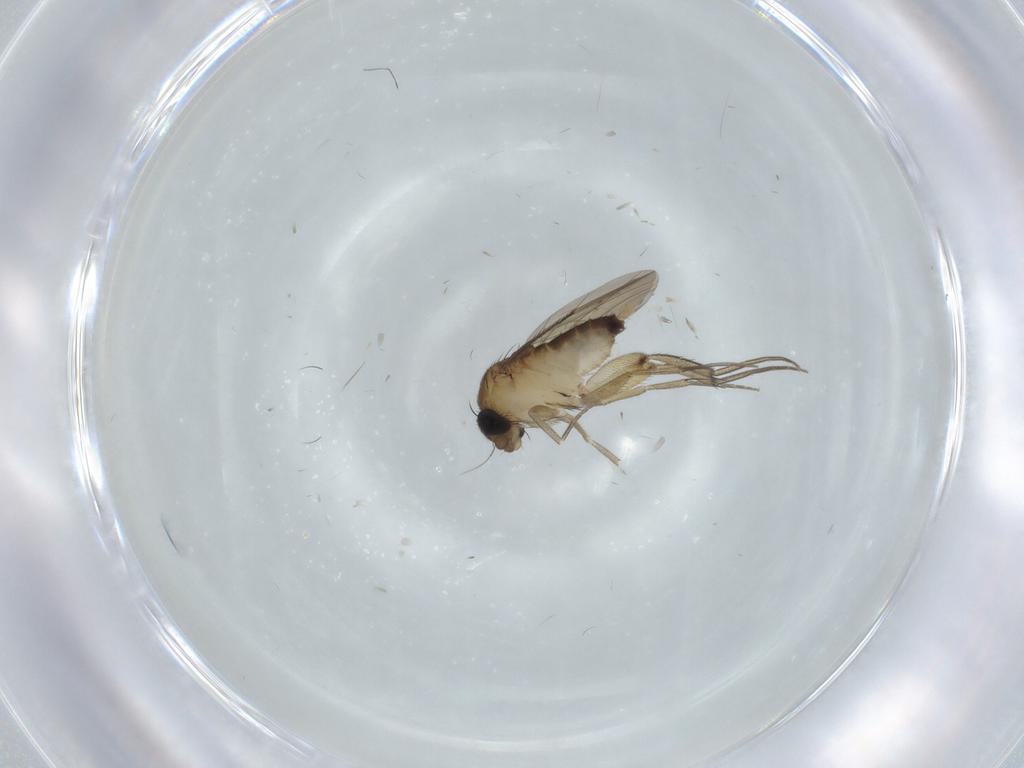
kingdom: Animalia
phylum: Arthropoda
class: Insecta
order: Diptera
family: Phoridae
